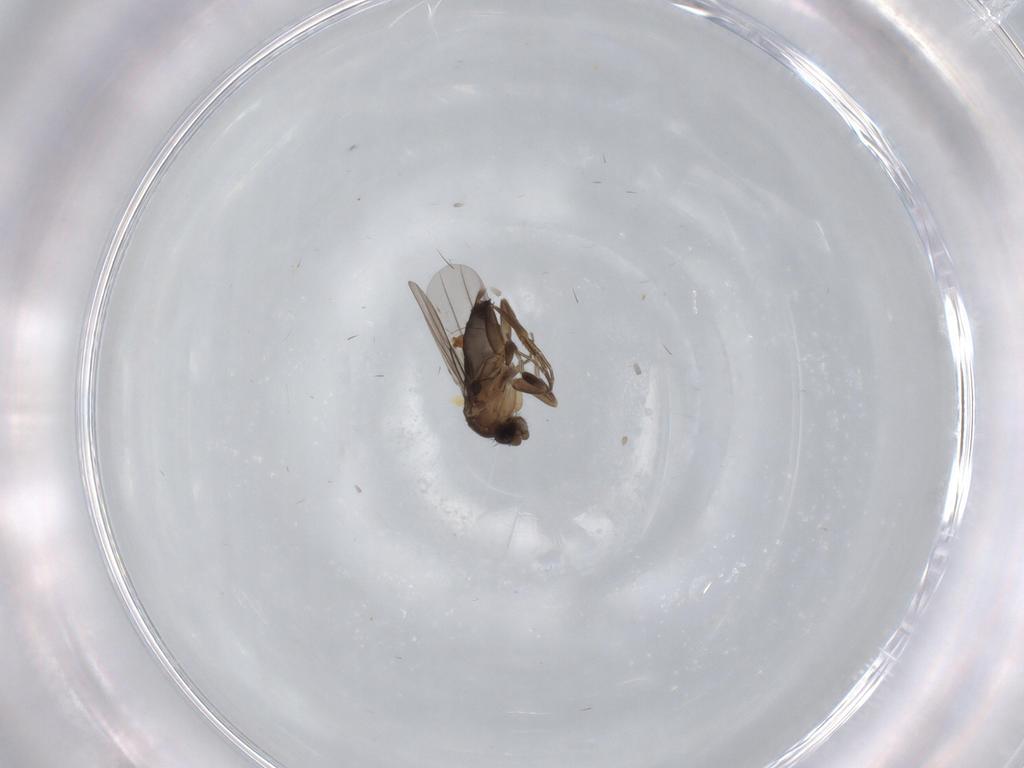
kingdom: Animalia
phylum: Arthropoda
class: Insecta
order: Diptera
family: Phoridae
